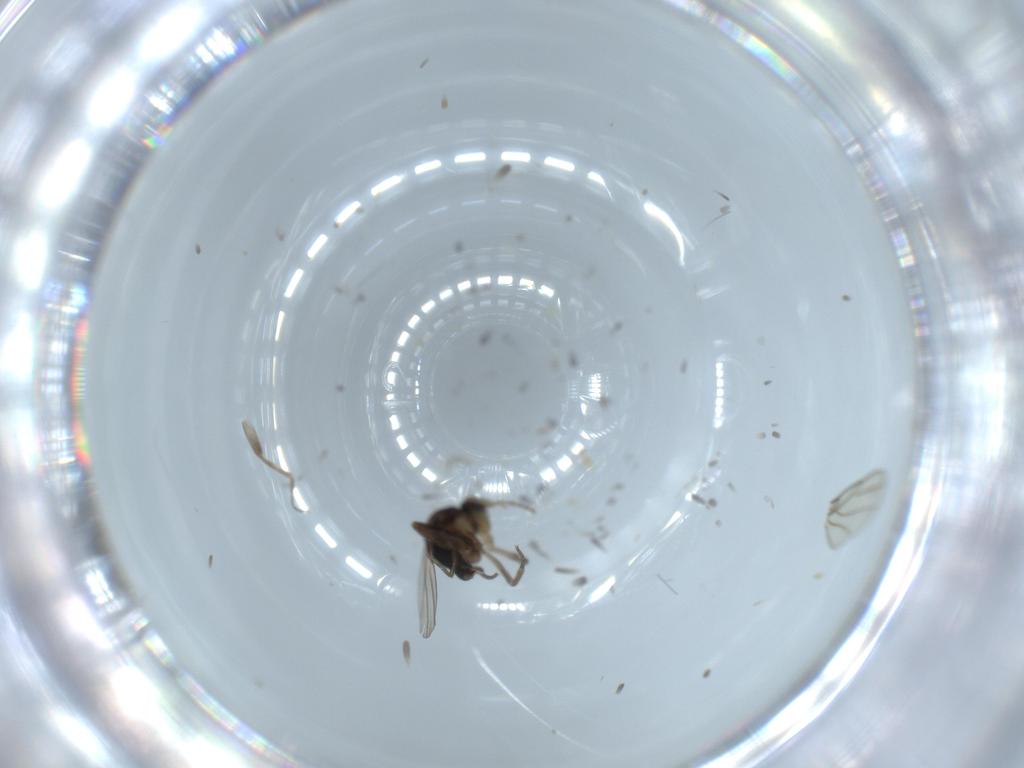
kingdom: Animalia
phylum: Arthropoda
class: Insecta
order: Diptera
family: Phoridae
